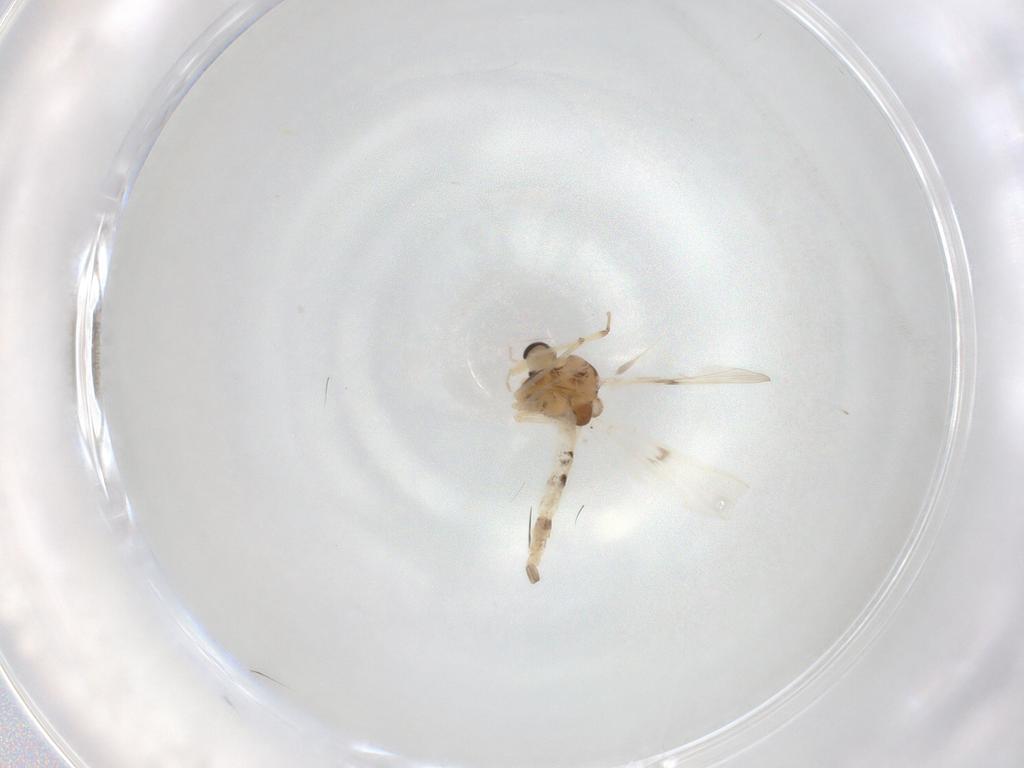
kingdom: Animalia
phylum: Arthropoda
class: Insecta
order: Diptera
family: Chironomidae
